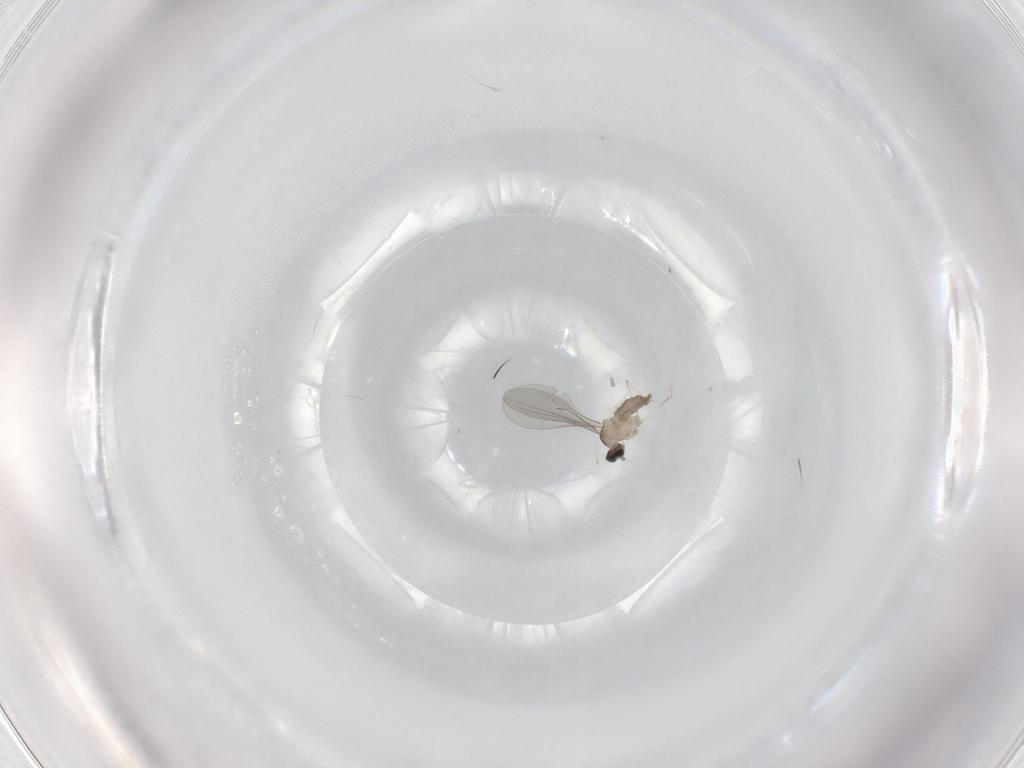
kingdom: Animalia
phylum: Arthropoda
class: Insecta
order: Diptera
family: Cecidomyiidae
